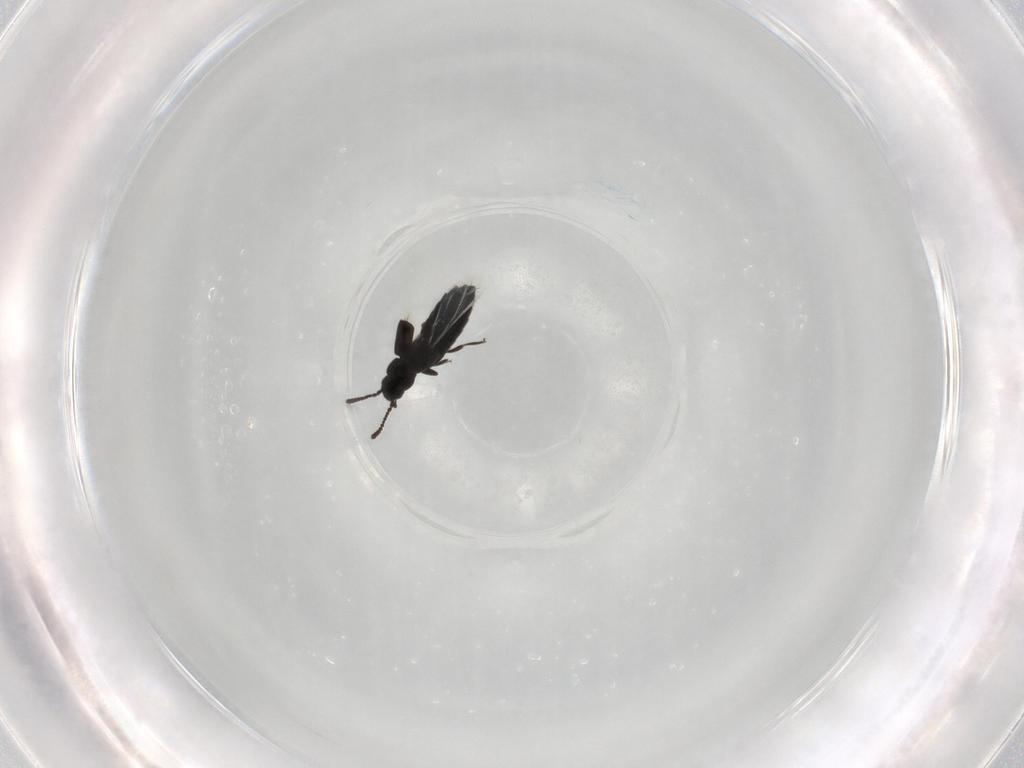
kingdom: Animalia
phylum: Arthropoda
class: Insecta
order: Coleoptera
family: Staphylinidae
